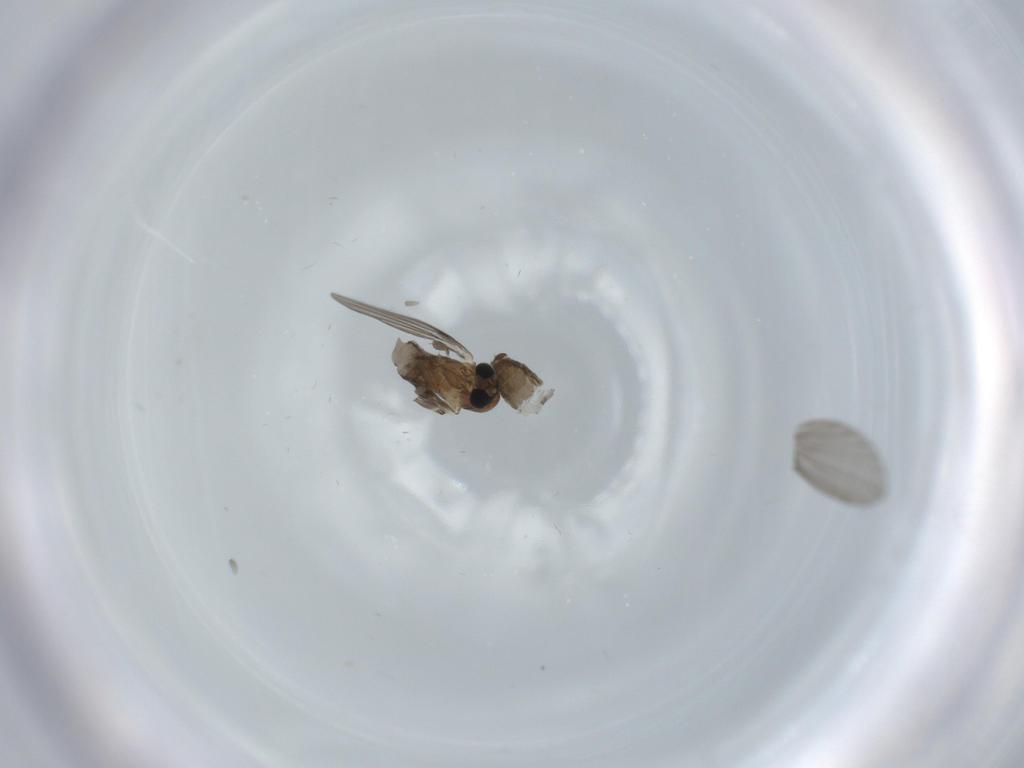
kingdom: Animalia
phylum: Arthropoda
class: Insecta
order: Diptera
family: Psychodidae
